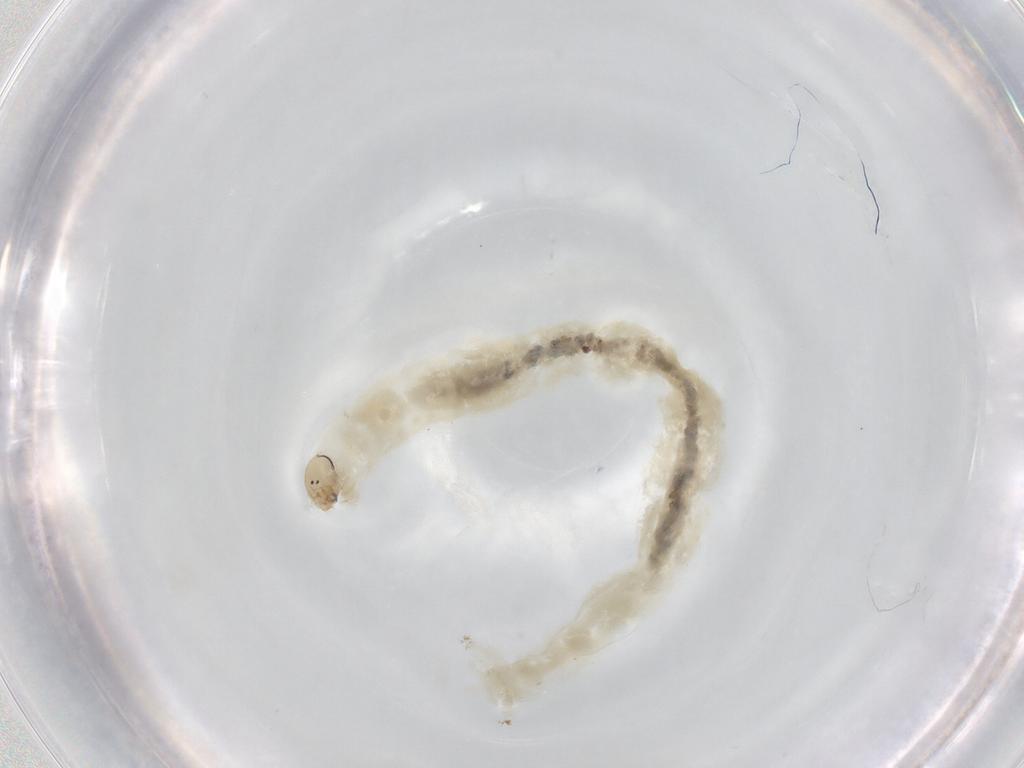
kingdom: Animalia
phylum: Arthropoda
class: Insecta
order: Diptera
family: Chironomidae
